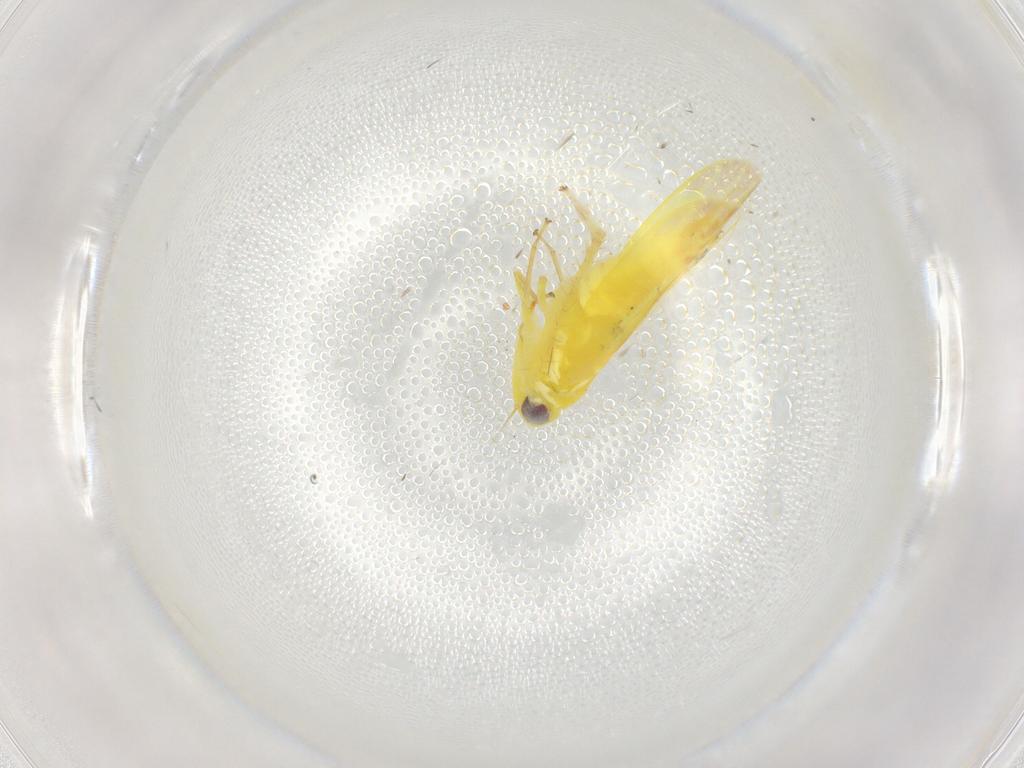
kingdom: Animalia
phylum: Arthropoda
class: Insecta
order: Hemiptera
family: Cicadellidae
